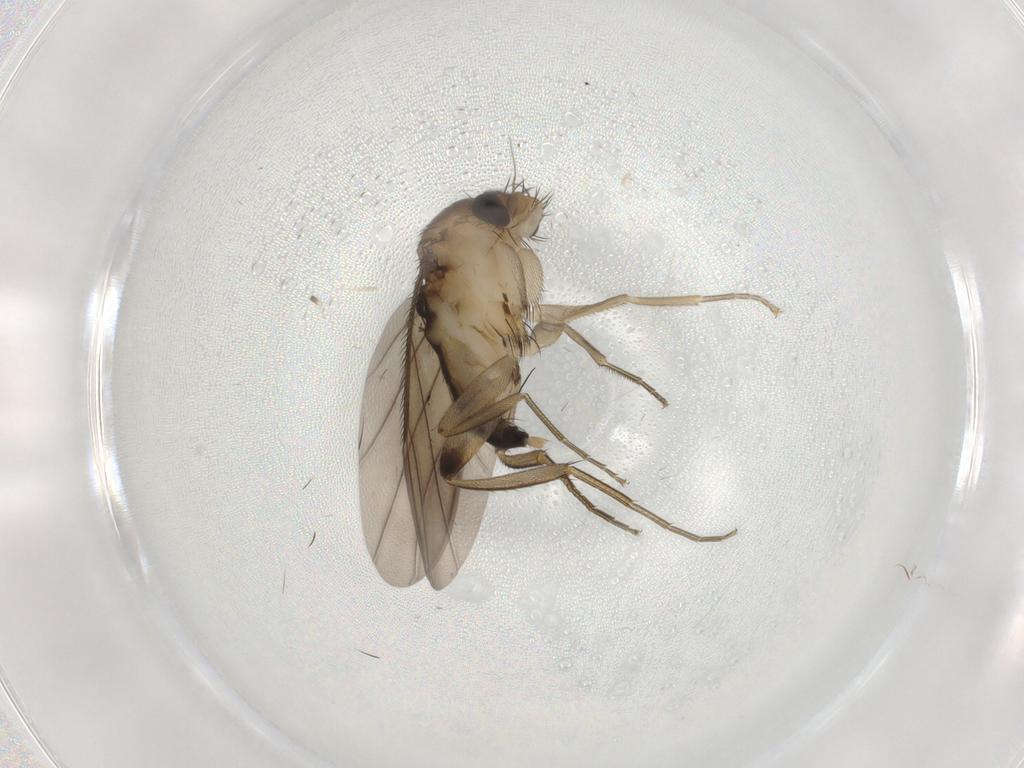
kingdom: Animalia
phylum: Arthropoda
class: Insecta
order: Diptera
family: Phoridae
